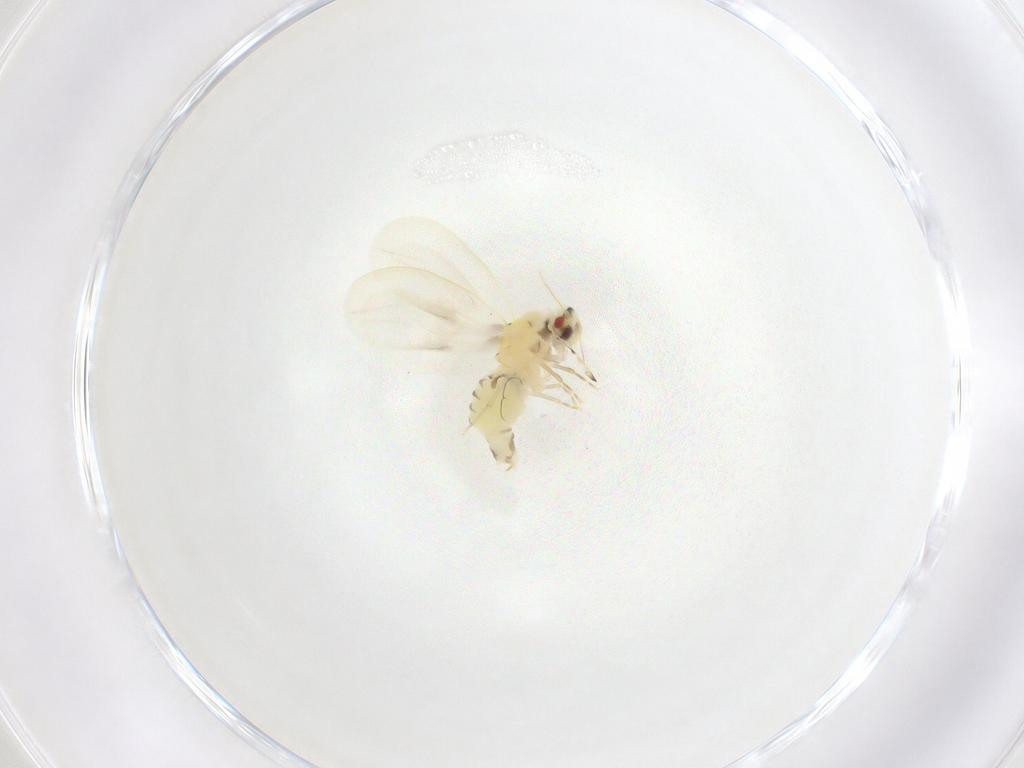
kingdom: Animalia
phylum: Arthropoda
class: Insecta
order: Hemiptera
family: Aleyrodidae
